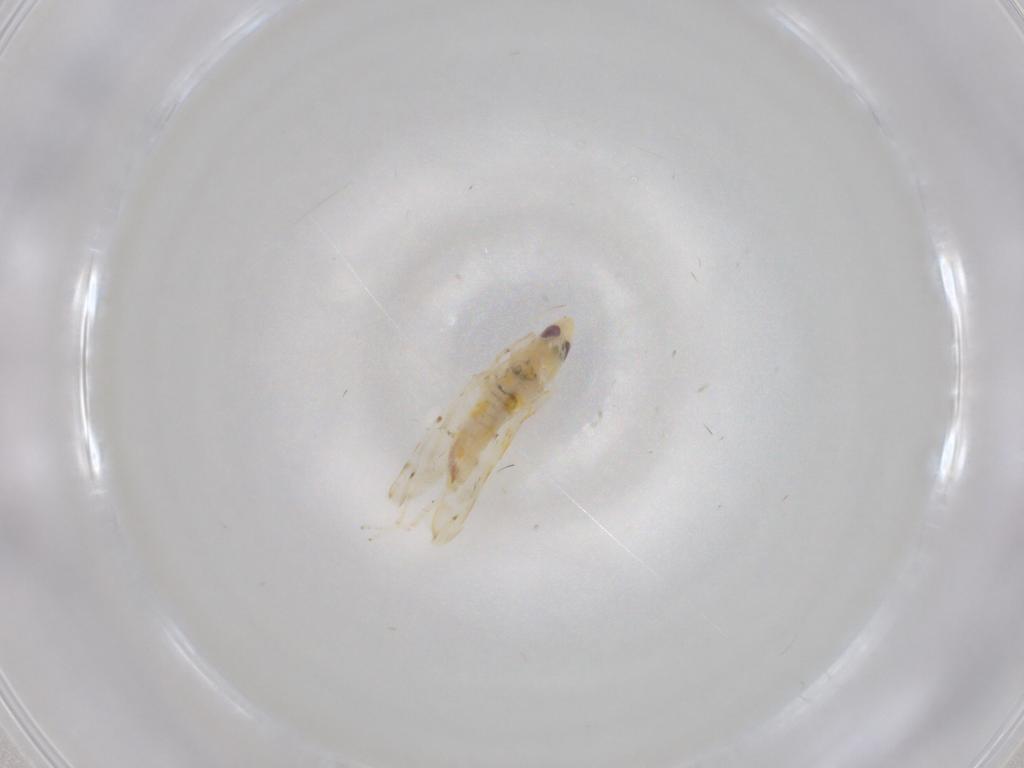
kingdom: Animalia
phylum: Arthropoda
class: Insecta
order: Hemiptera
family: Aleyrodidae
